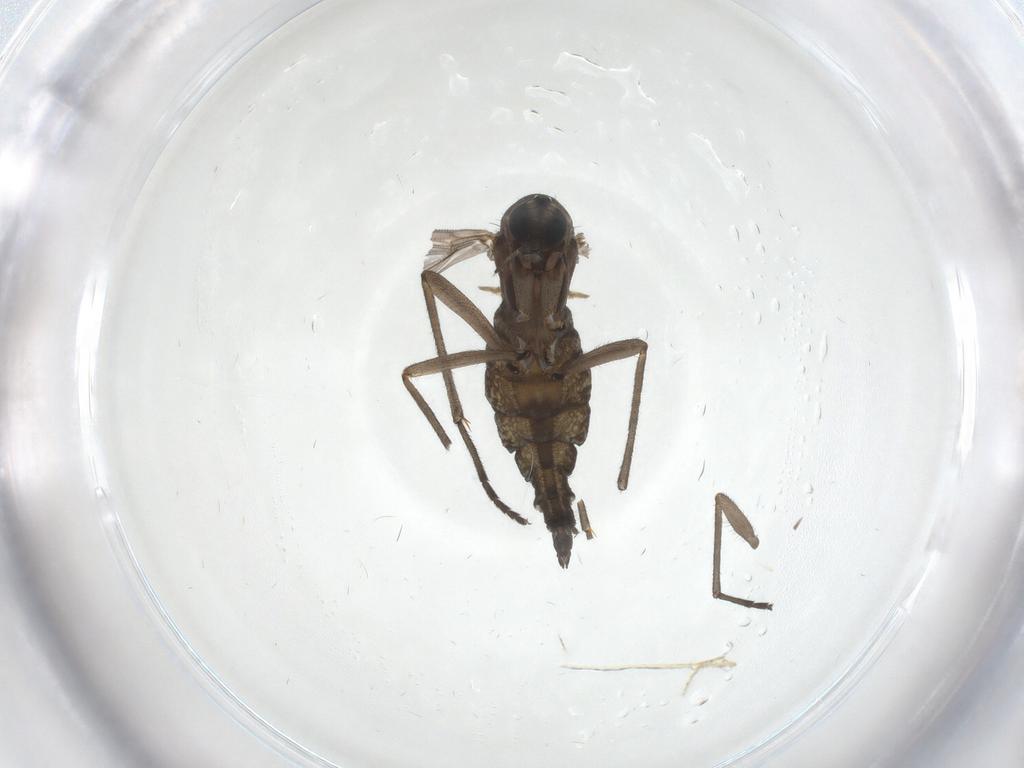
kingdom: Animalia
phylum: Arthropoda
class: Insecta
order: Diptera
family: Sciaridae
